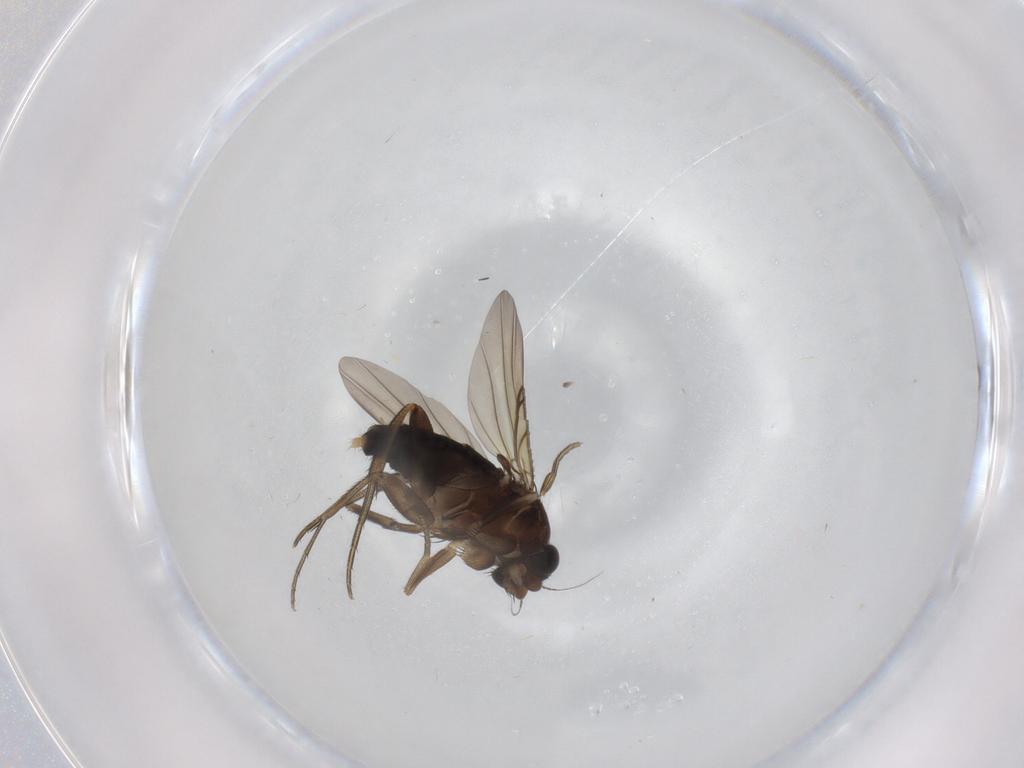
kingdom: Animalia
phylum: Arthropoda
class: Insecta
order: Diptera
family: Phoridae
